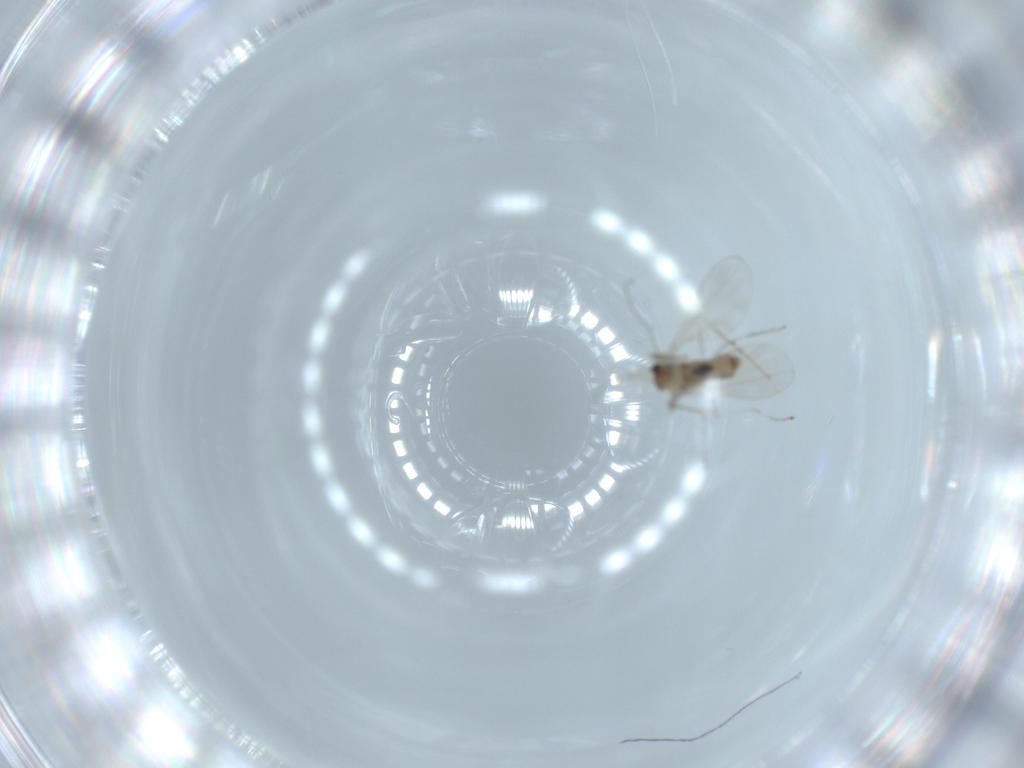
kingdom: Animalia
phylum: Arthropoda
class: Insecta
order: Diptera
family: Cecidomyiidae
